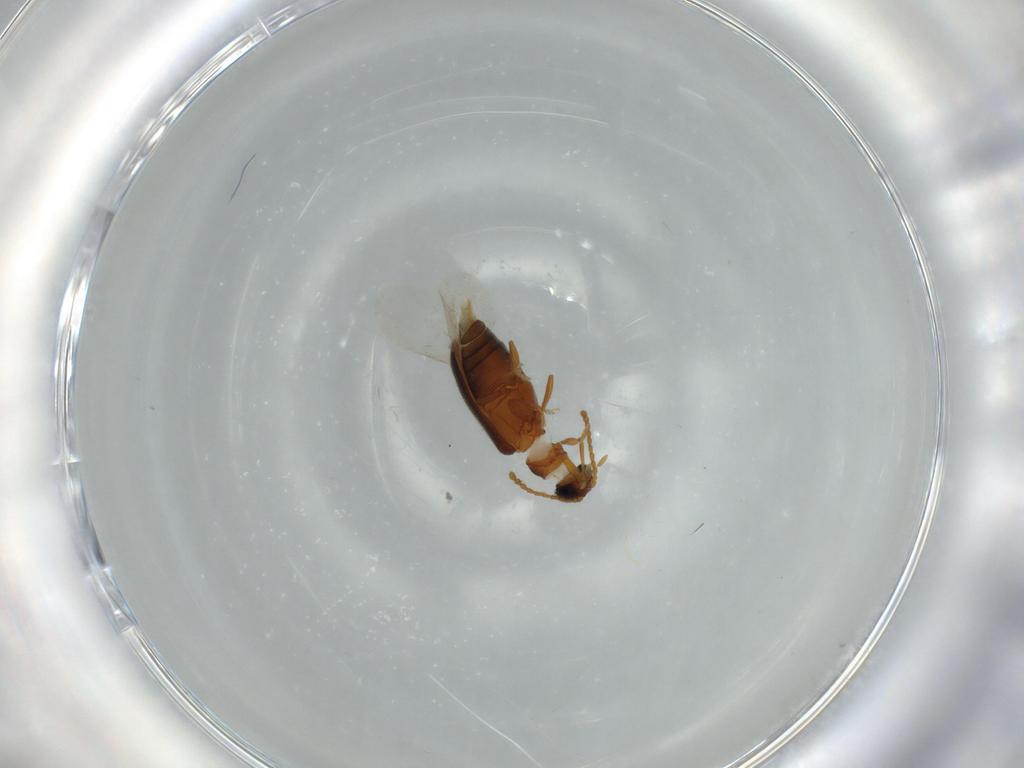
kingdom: Animalia
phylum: Arthropoda
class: Insecta
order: Coleoptera
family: Aderidae
